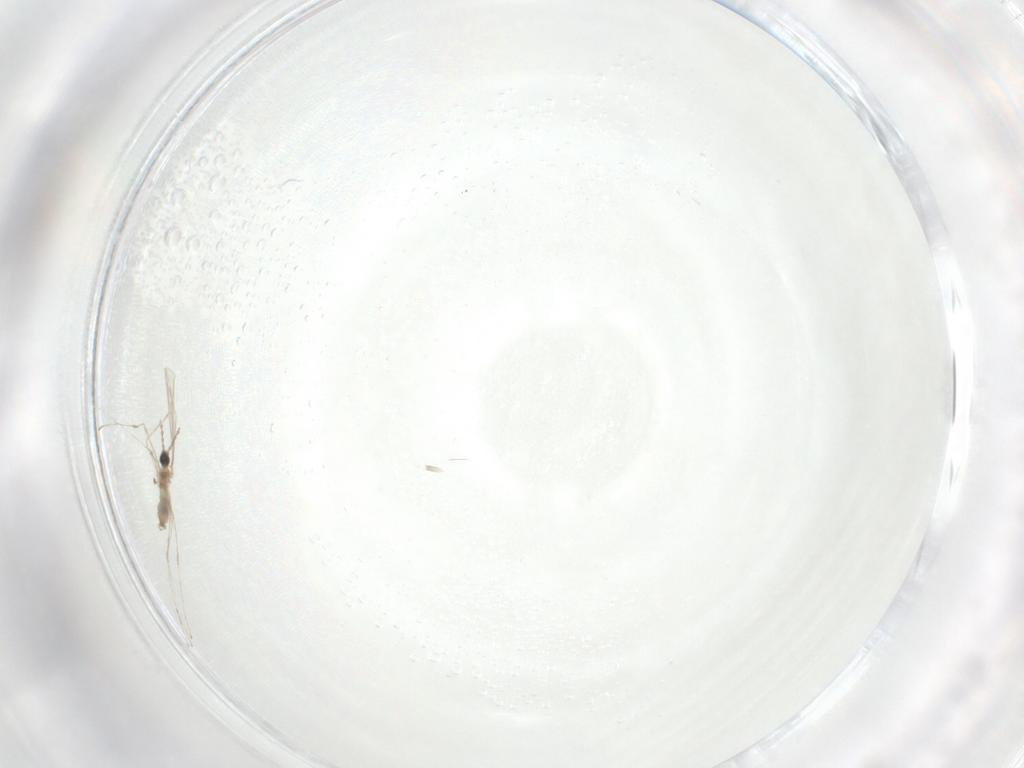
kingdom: Animalia
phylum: Arthropoda
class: Insecta
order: Diptera
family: Cecidomyiidae
